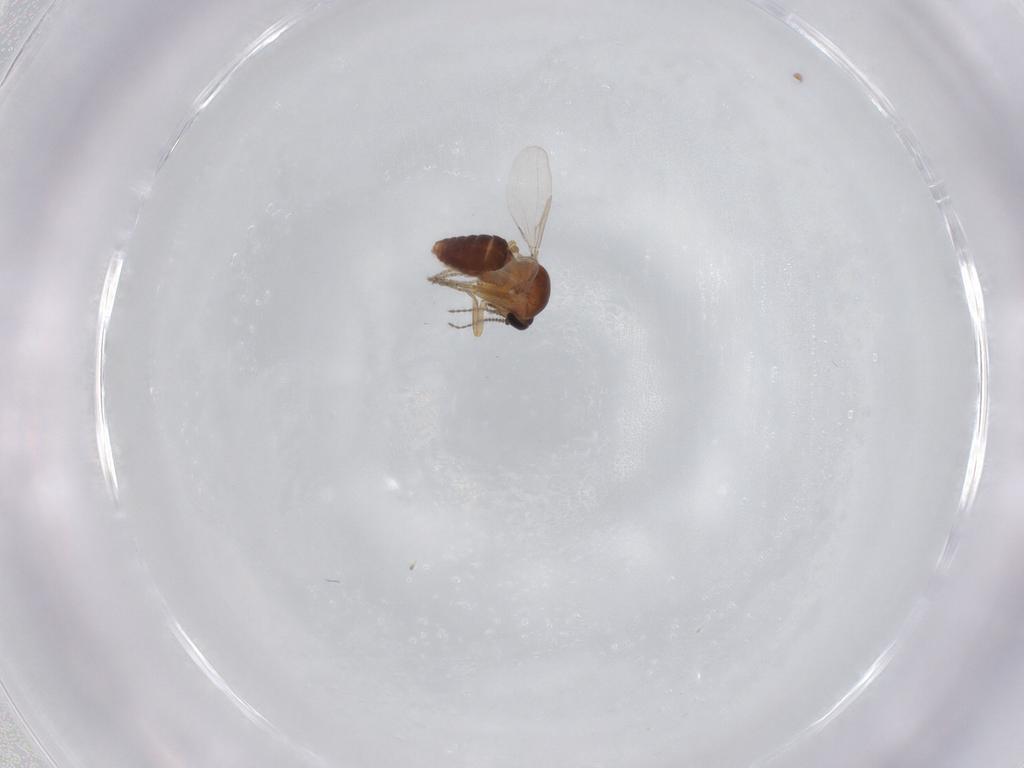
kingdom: Animalia
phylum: Arthropoda
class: Insecta
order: Diptera
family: Ceratopogonidae
